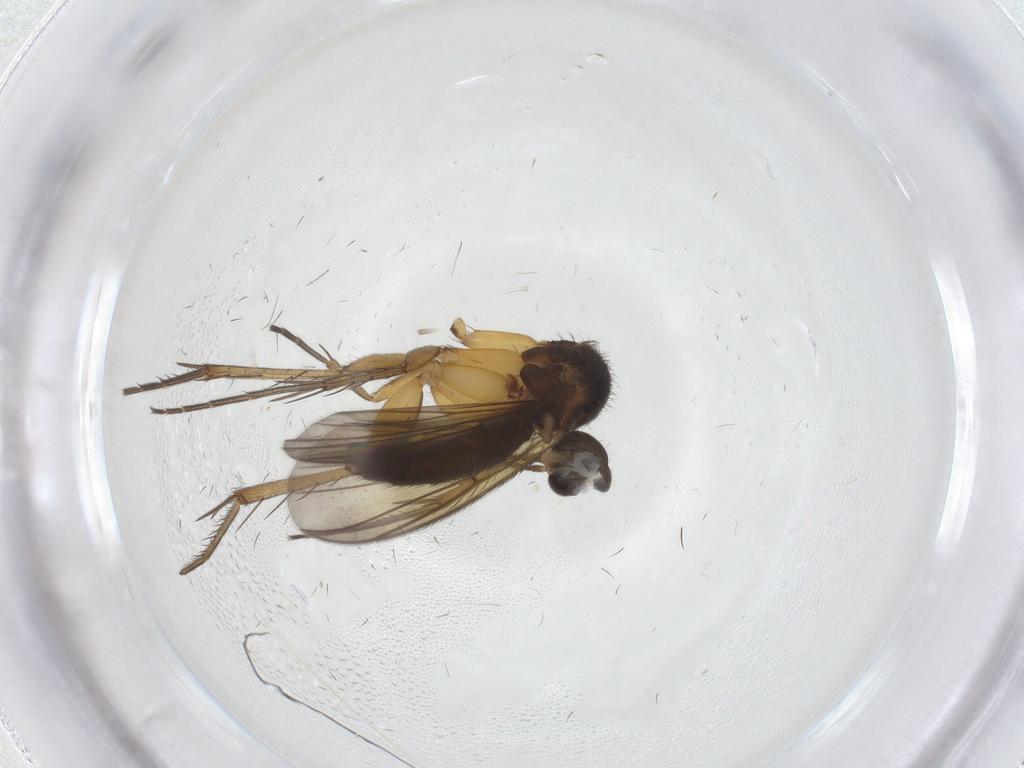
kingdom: Animalia
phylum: Arthropoda
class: Insecta
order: Diptera
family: Mycetophilidae
